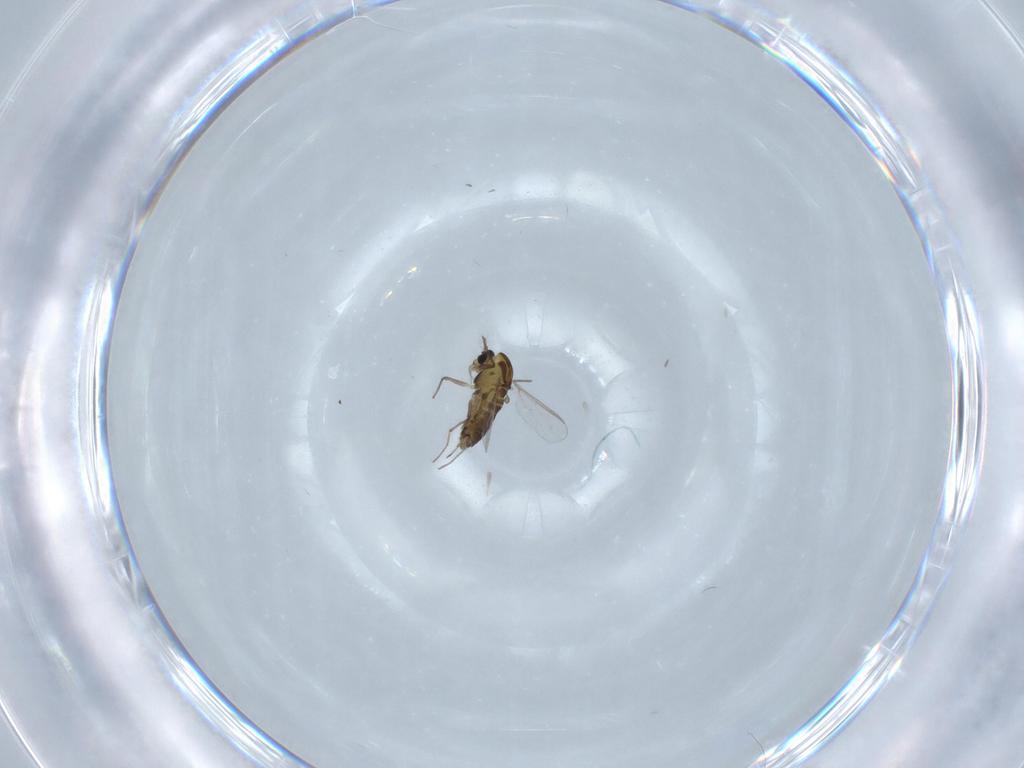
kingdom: Animalia
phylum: Arthropoda
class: Insecta
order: Diptera
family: Chironomidae
